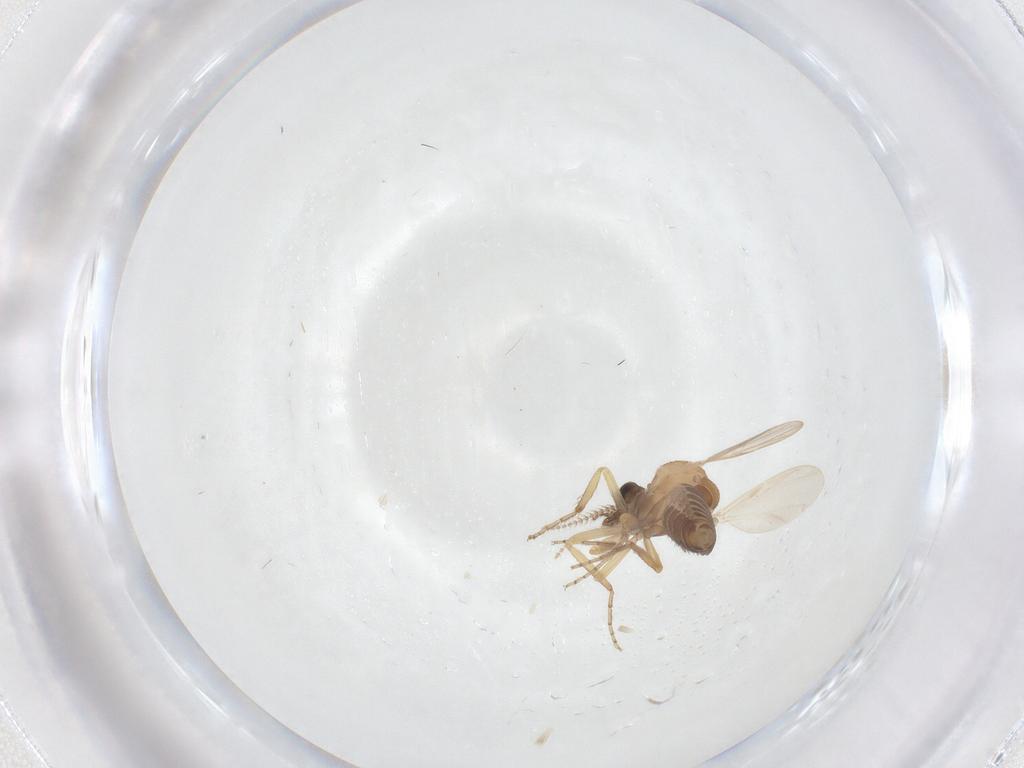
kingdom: Animalia
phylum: Arthropoda
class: Insecta
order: Diptera
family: Ceratopogonidae
